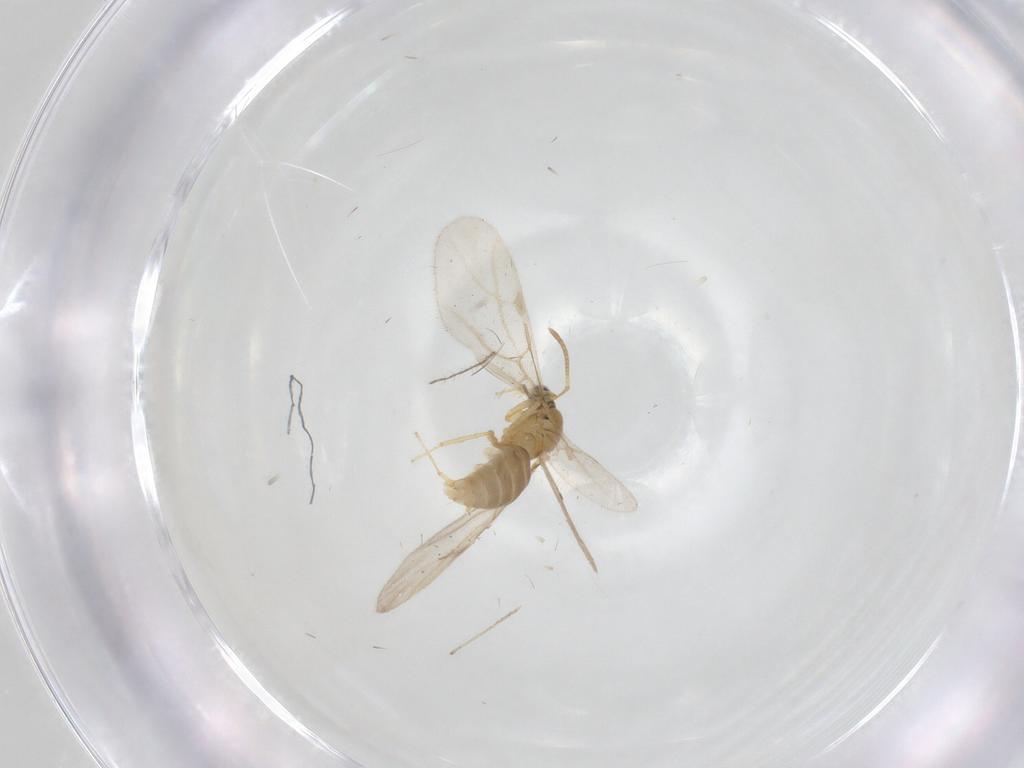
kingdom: Animalia
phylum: Arthropoda
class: Insecta
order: Hymenoptera
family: Formicidae
